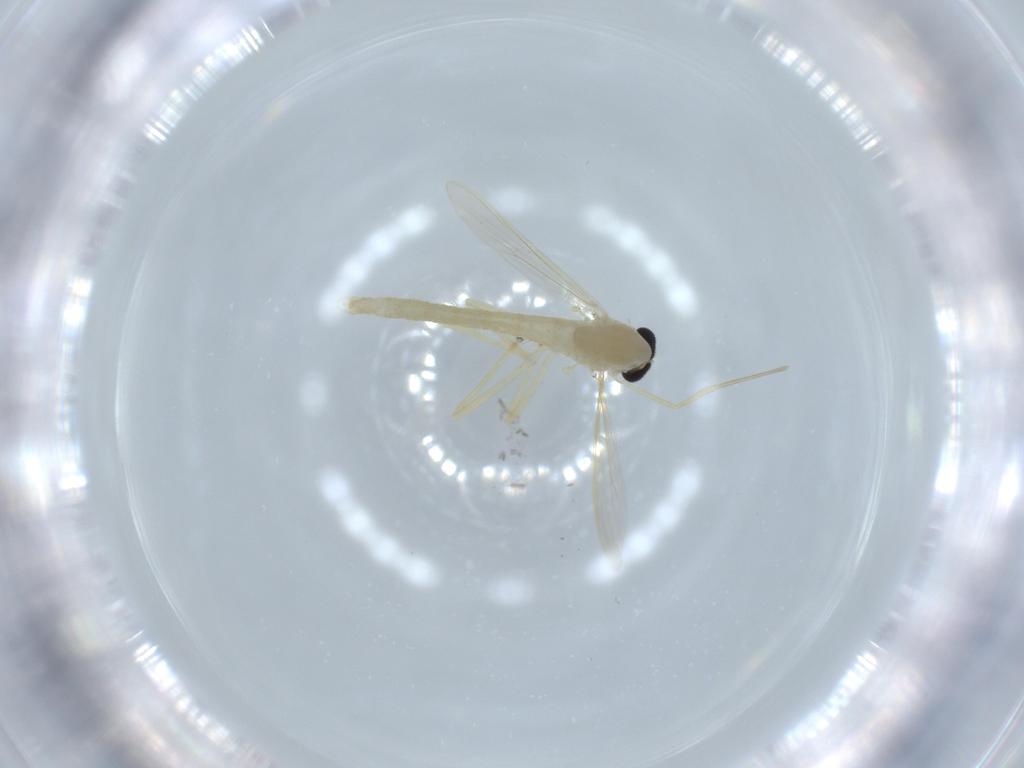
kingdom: Animalia
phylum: Arthropoda
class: Insecta
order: Diptera
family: Chironomidae
